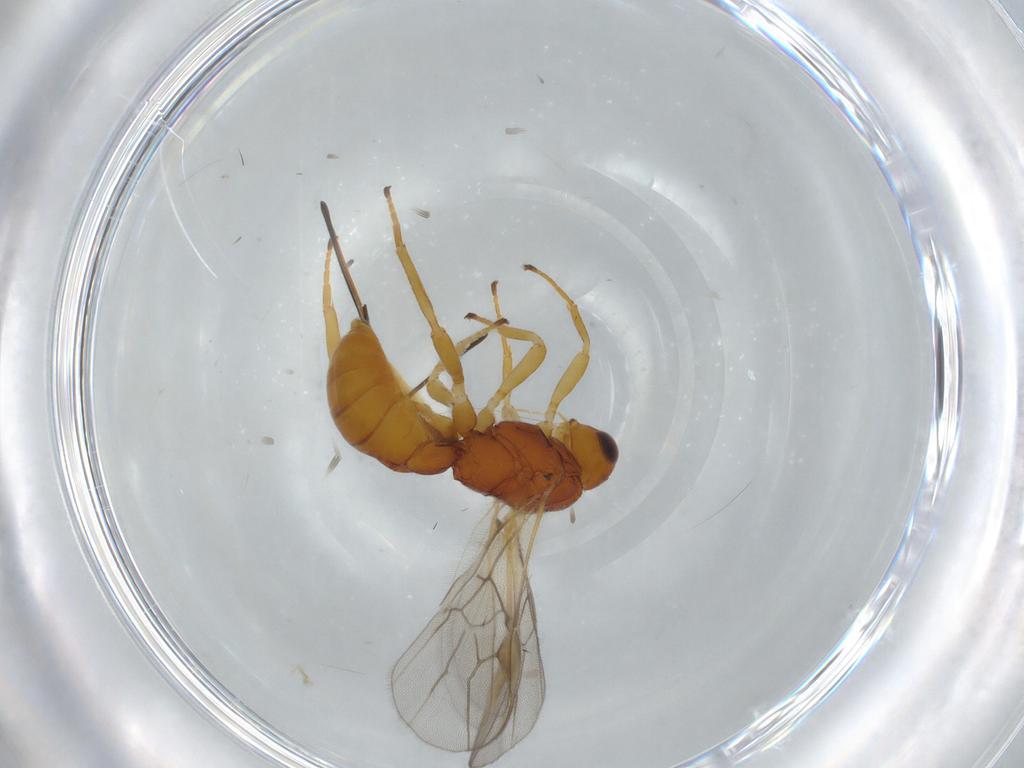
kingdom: Animalia
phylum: Arthropoda
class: Insecta
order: Hymenoptera
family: Braconidae
